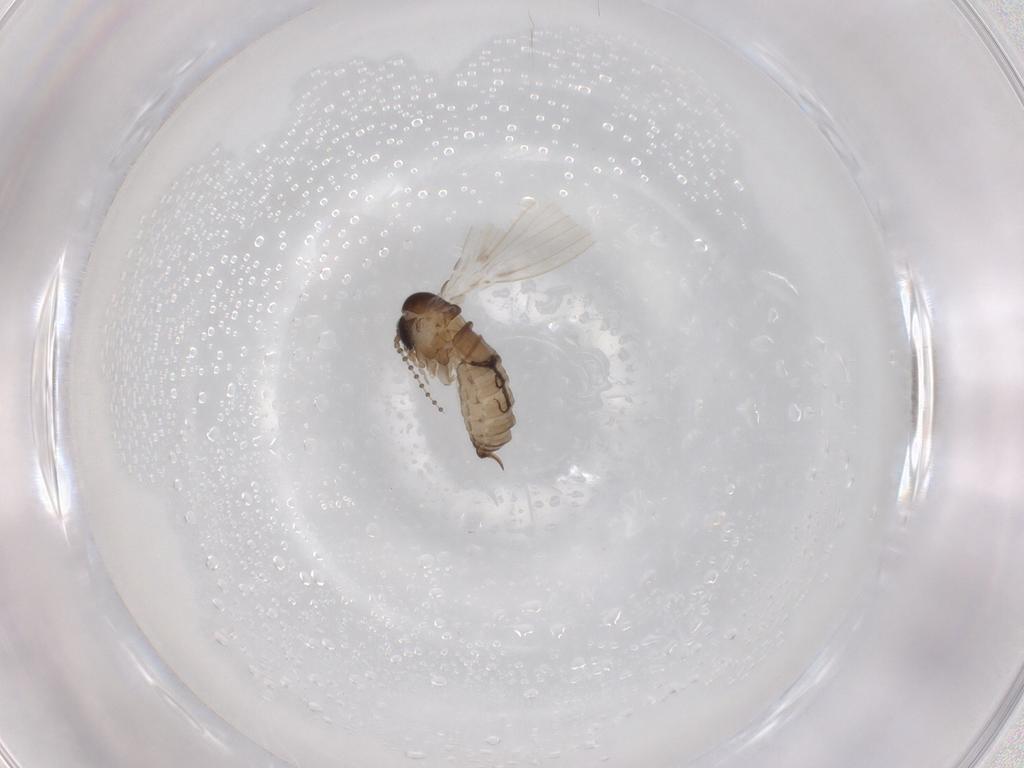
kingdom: Animalia
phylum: Arthropoda
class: Insecta
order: Diptera
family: Psychodidae
